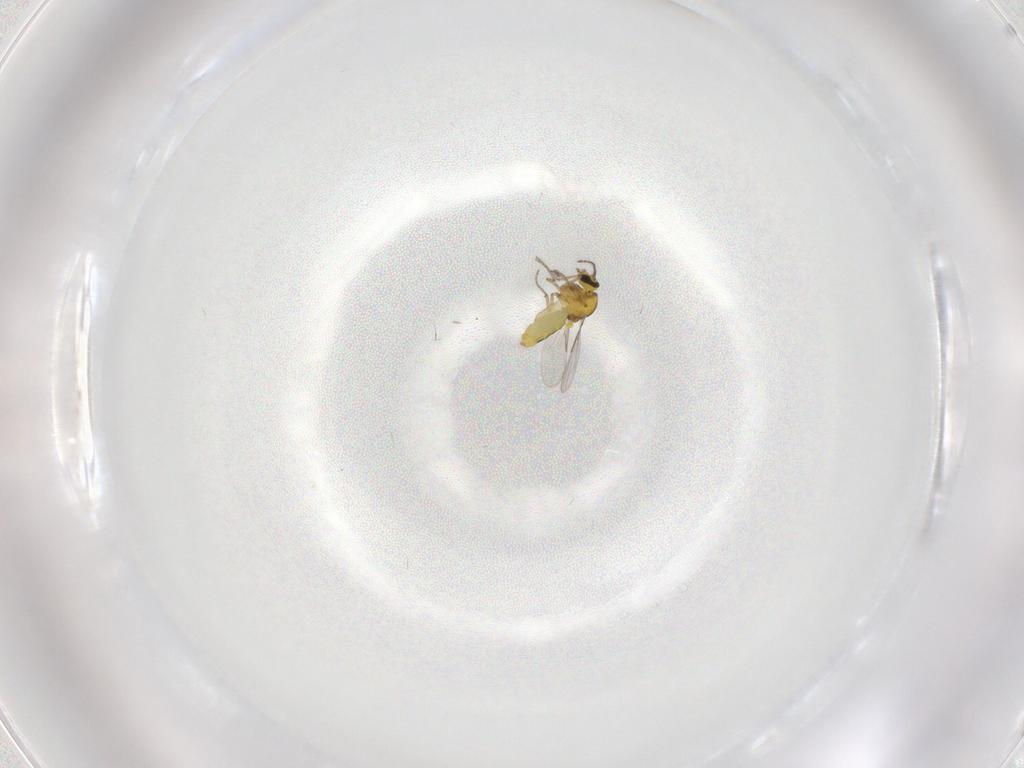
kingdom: Animalia
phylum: Arthropoda
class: Insecta
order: Diptera
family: Ceratopogonidae
